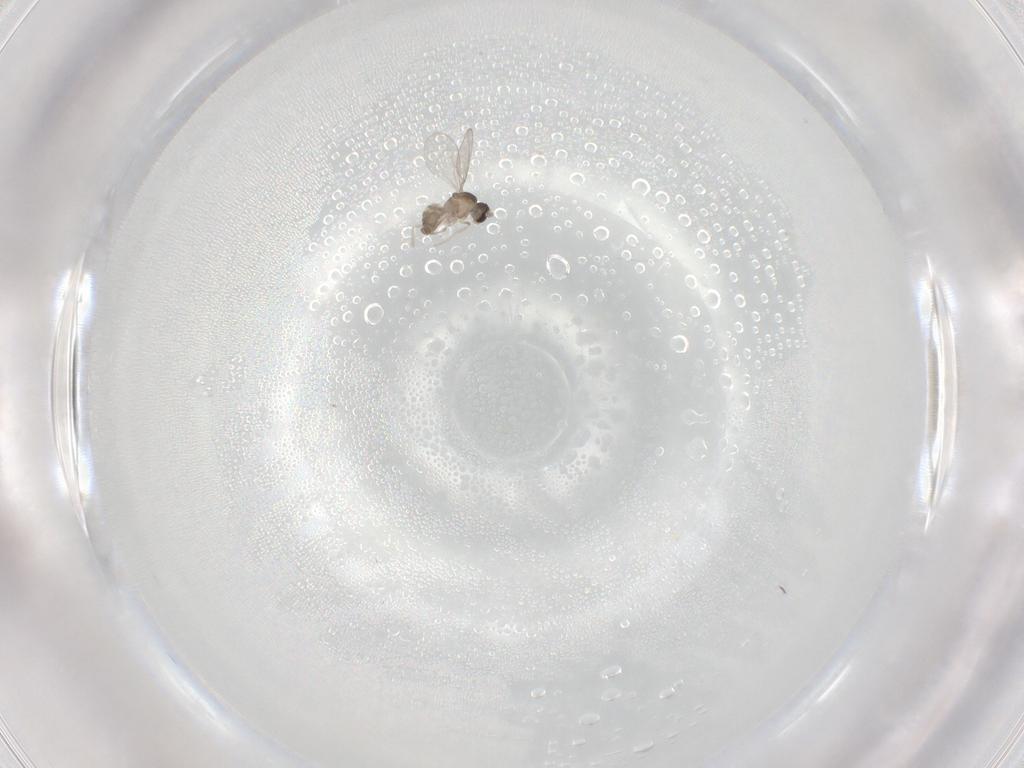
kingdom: Animalia
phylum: Arthropoda
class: Insecta
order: Diptera
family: Cecidomyiidae
